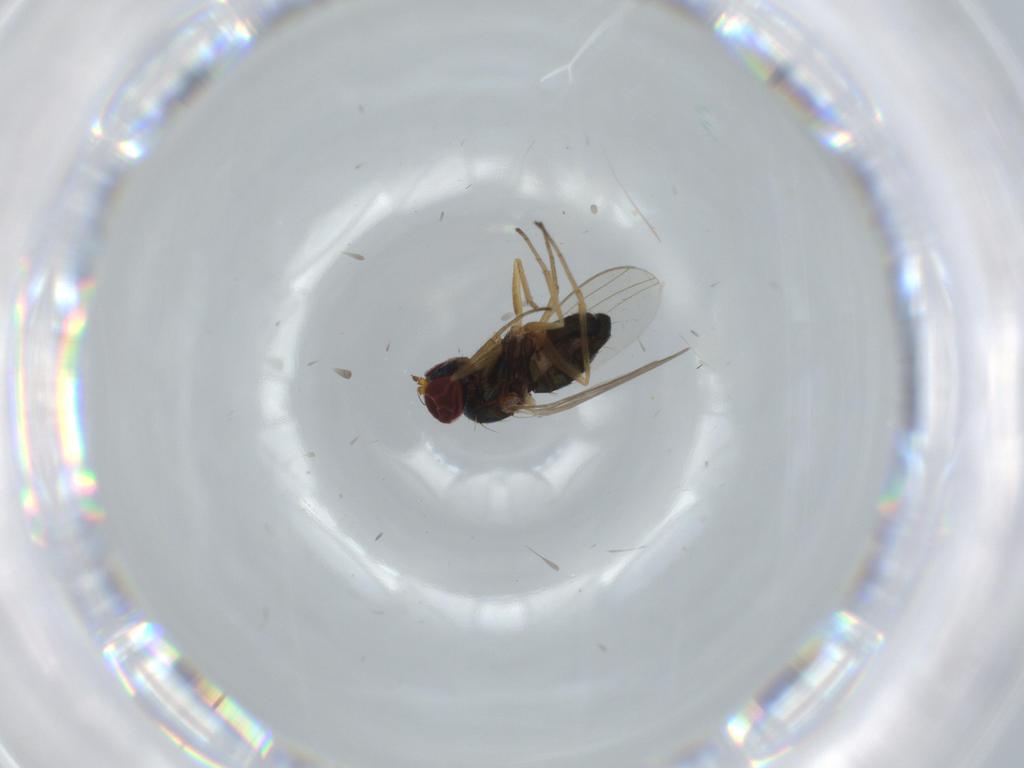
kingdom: Animalia
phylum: Arthropoda
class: Insecta
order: Diptera
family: Dolichopodidae
